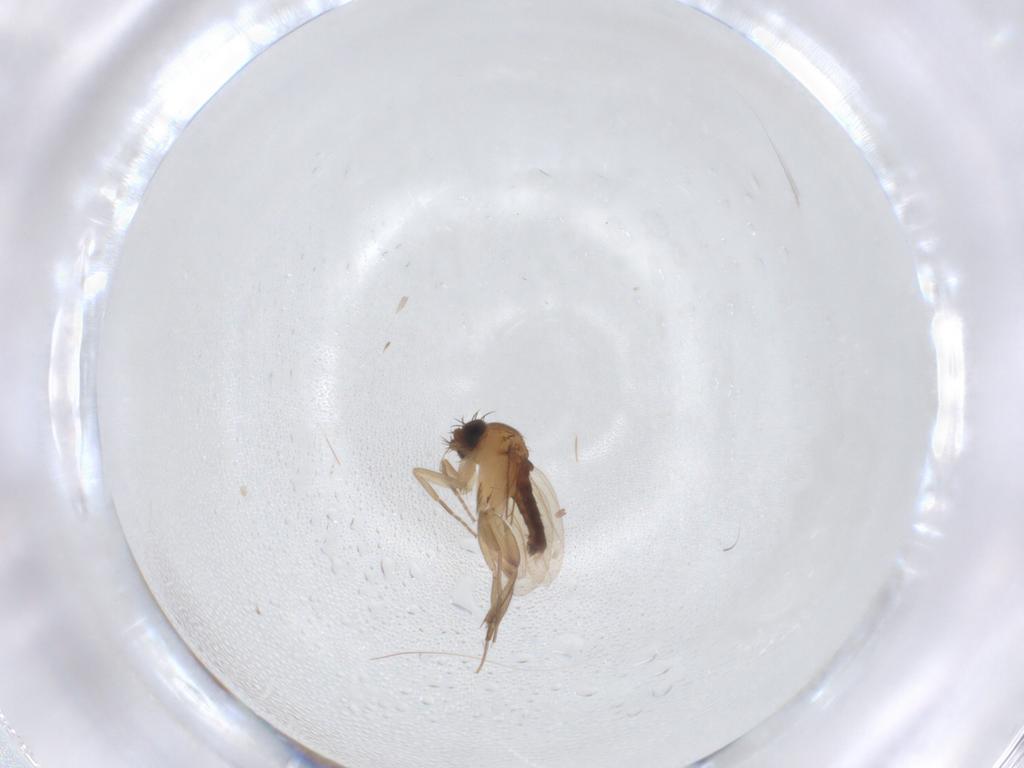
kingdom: Animalia
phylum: Arthropoda
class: Insecta
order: Diptera
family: Phoridae
